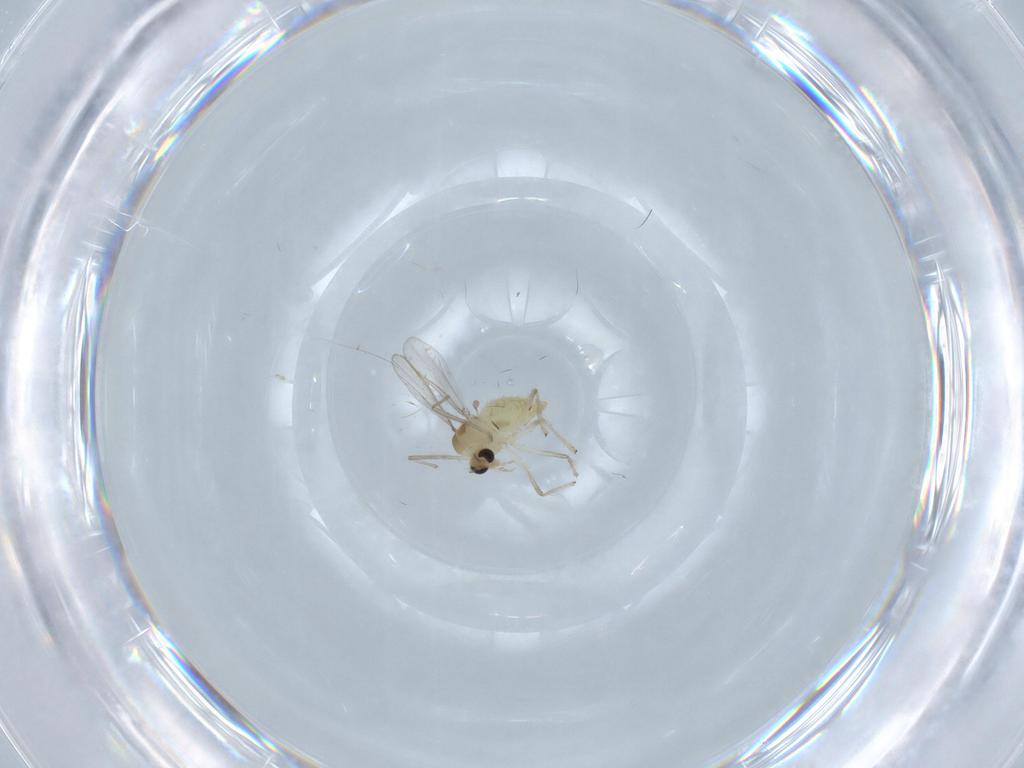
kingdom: Animalia
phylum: Arthropoda
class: Insecta
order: Diptera
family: Chironomidae
